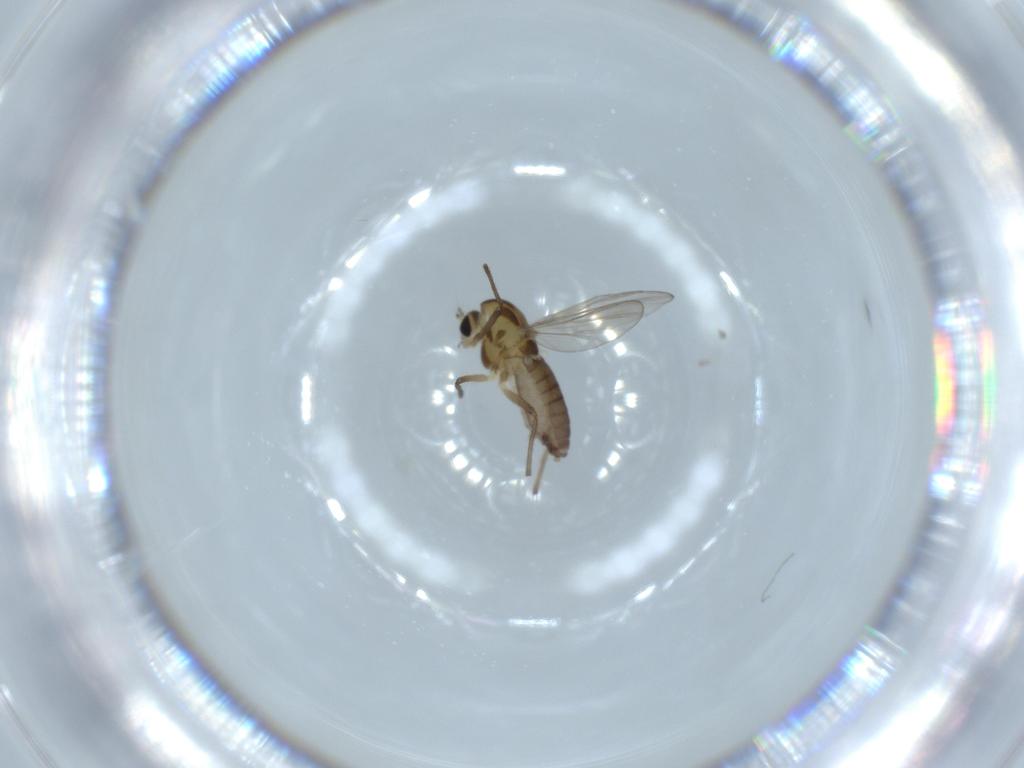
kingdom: Animalia
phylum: Arthropoda
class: Insecta
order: Diptera
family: Chironomidae
